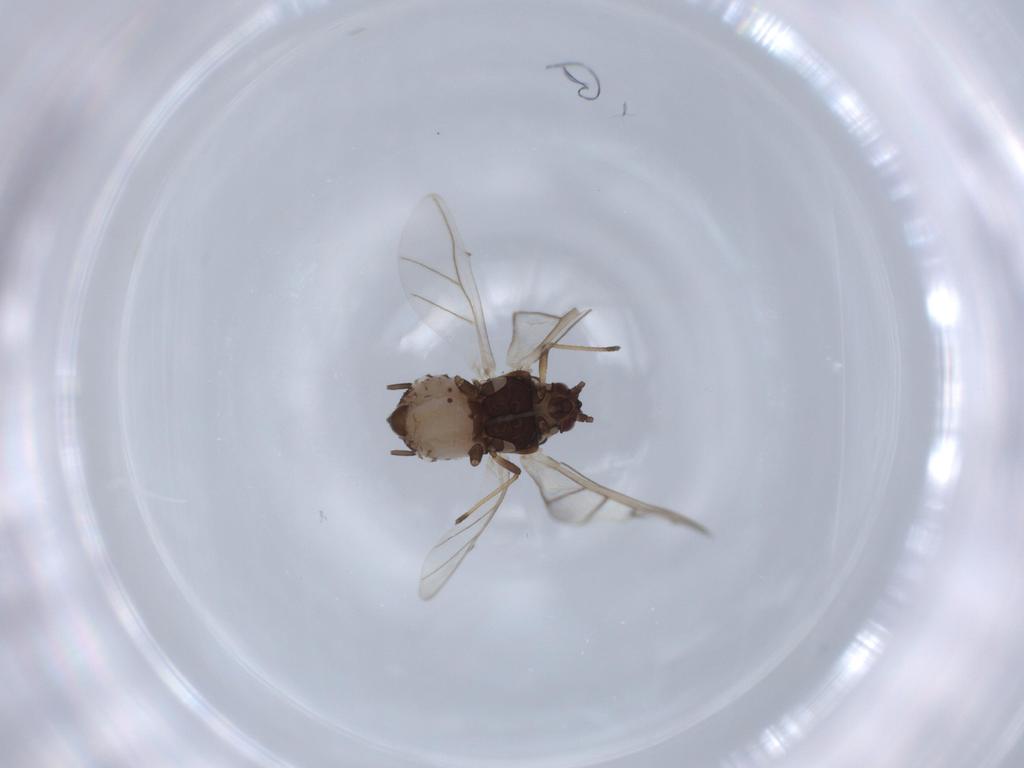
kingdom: Animalia
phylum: Arthropoda
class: Insecta
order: Hemiptera
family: Aphididae
